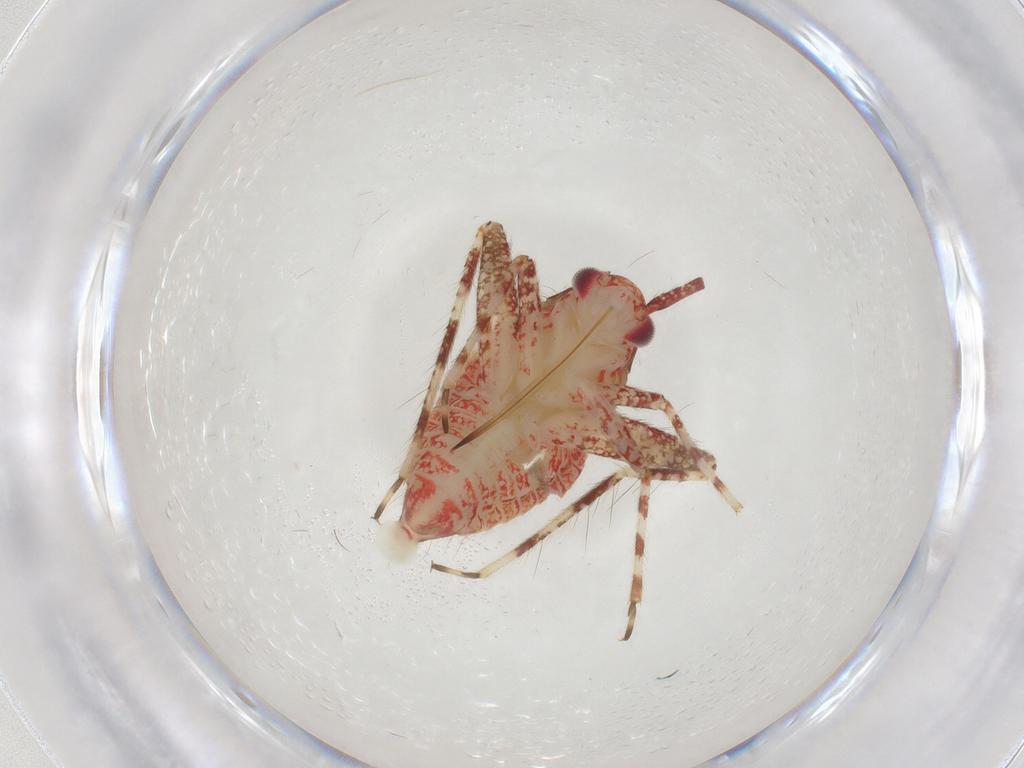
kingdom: Animalia
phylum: Arthropoda
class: Insecta
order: Hemiptera
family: Miridae
